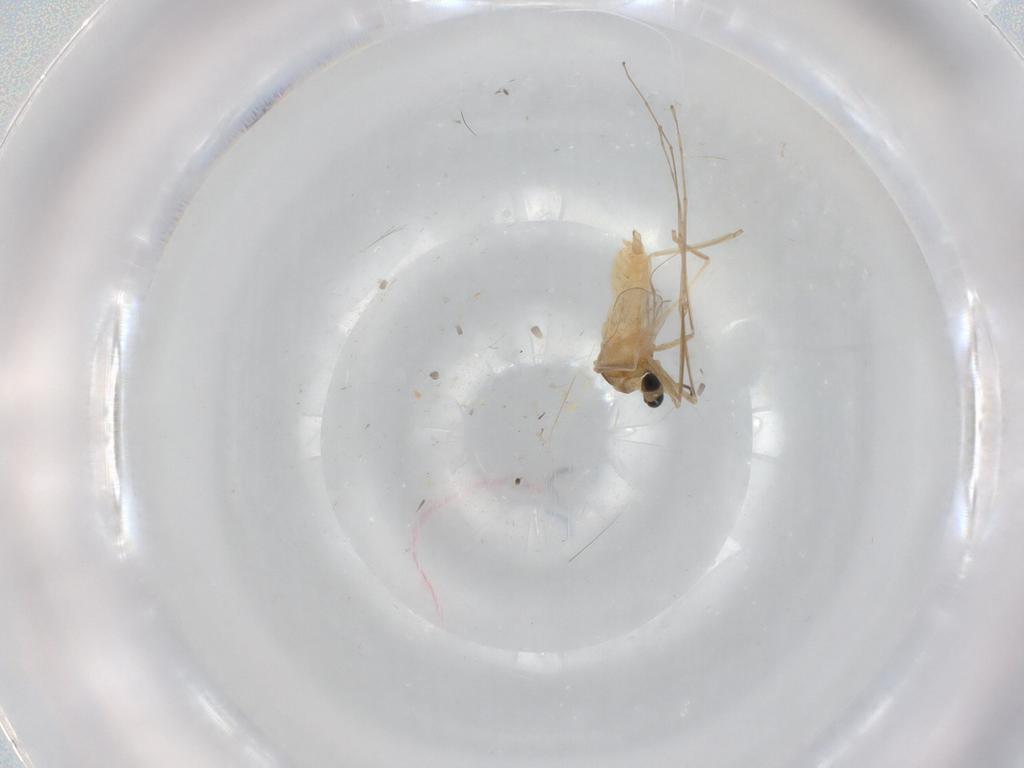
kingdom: Animalia
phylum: Arthropoda
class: Insecta
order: Diptera
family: Cecidomyiidae
